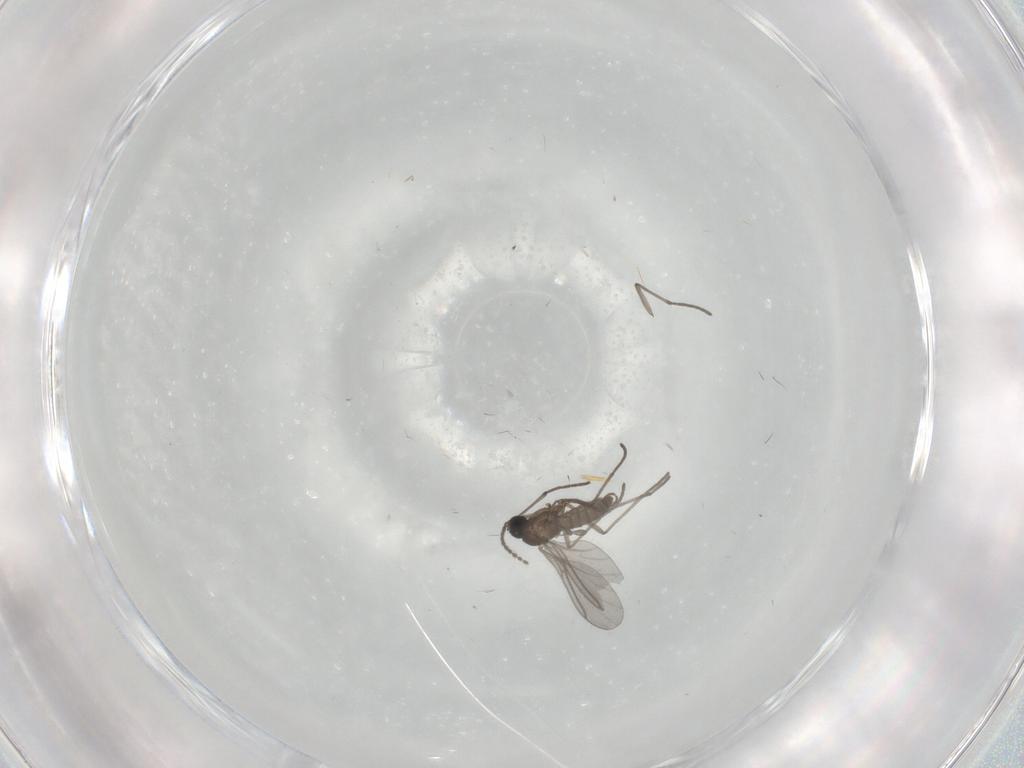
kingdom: Animalia
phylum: Arthropoda
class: Insecta
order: Diptera
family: Sciaridae
